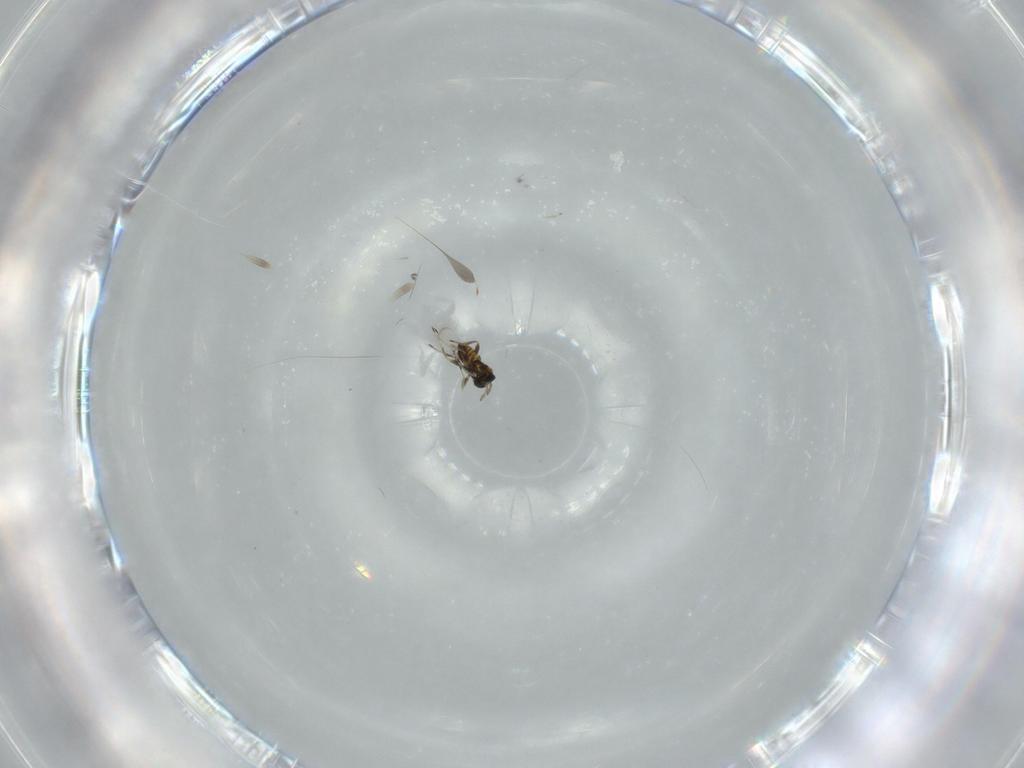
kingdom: Animalia
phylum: Arthropoda
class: Insecta
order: Hymenoptera
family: Trichogrammatidae
